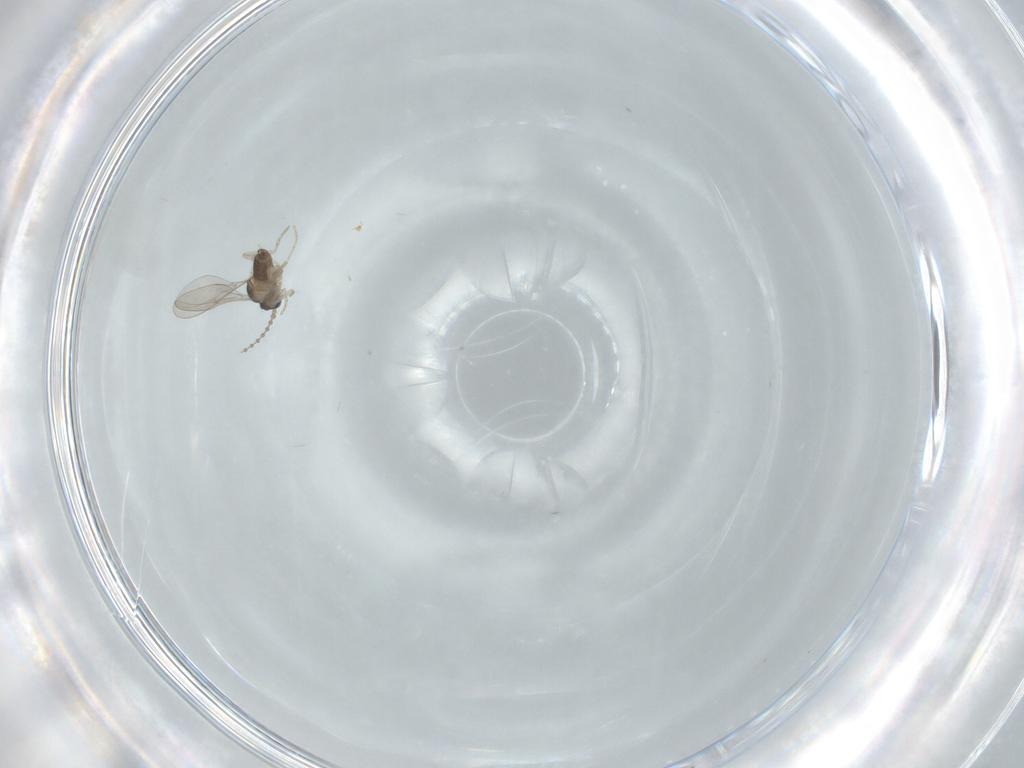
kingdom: Animalia
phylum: Arthropoda
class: Insecta
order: Diptera
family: Cecidomyiidae
